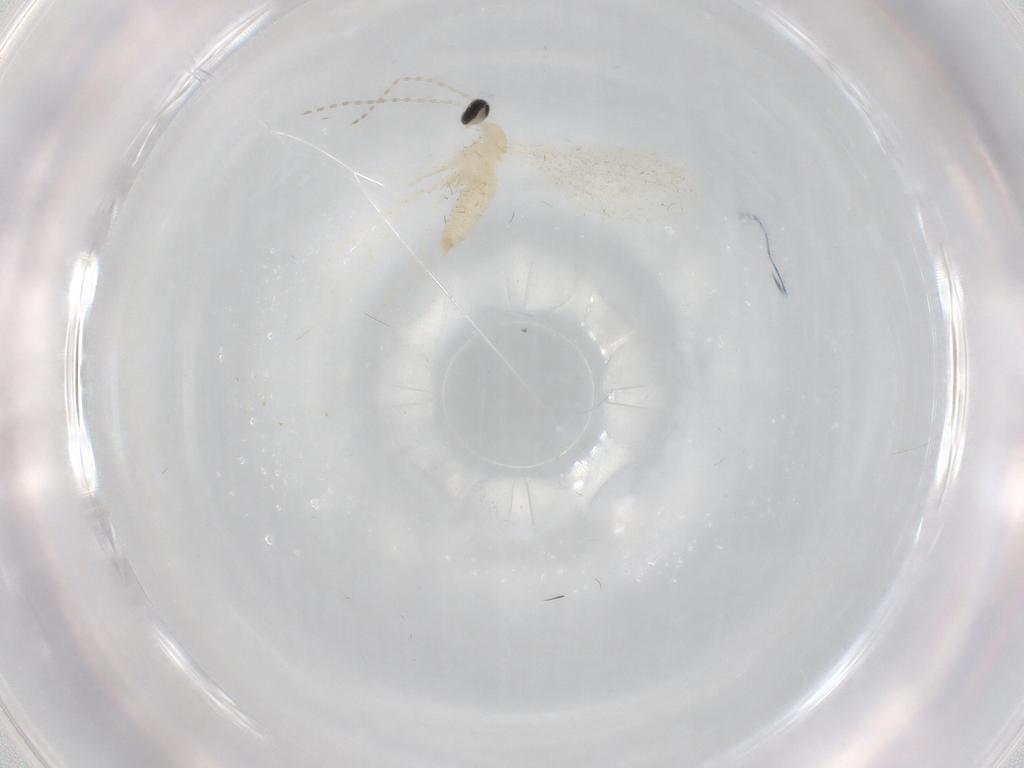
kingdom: Animalia
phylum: Arthropoda
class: Insecta
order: Diptera
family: Cecidomyiidae
